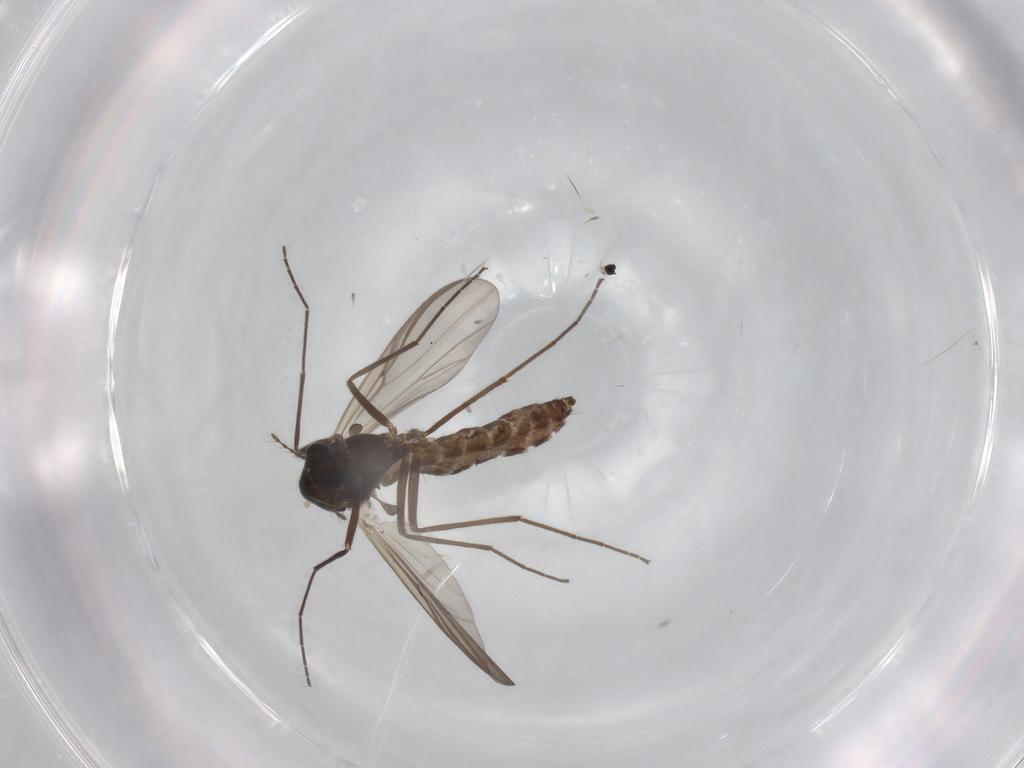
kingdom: Animalia
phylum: Arthropoda
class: Insecta
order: Diptera
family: Chironomidae
